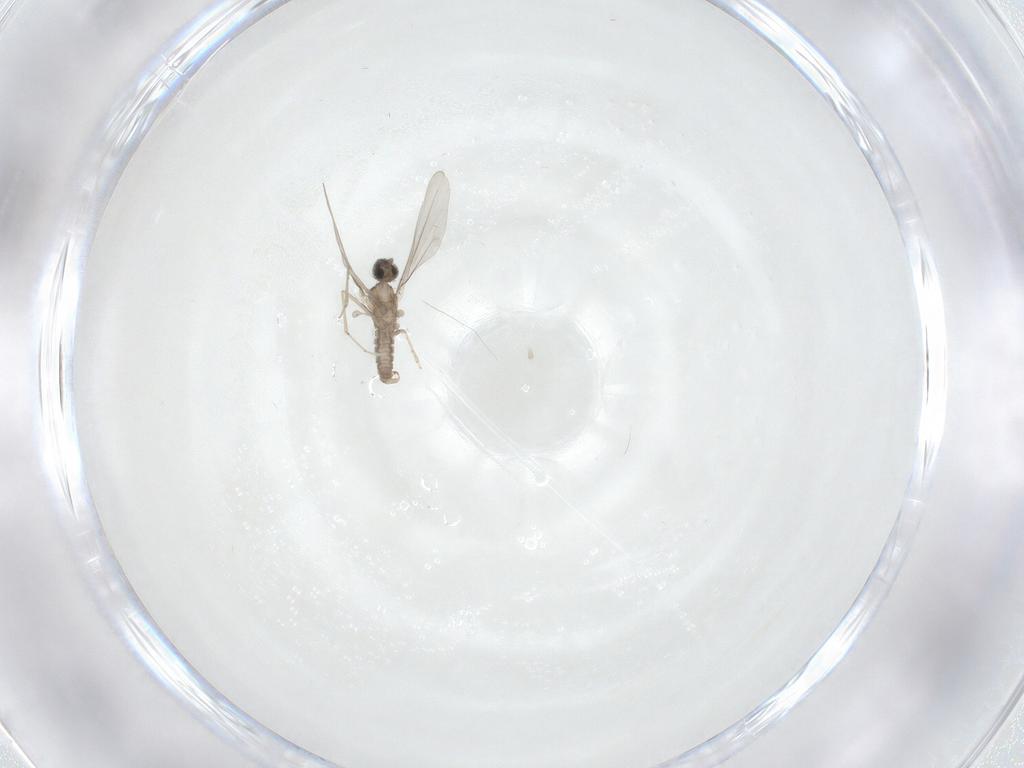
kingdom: Animalia
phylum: Arthropoda
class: Insecta
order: Diptera
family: Cecidomyiidae
